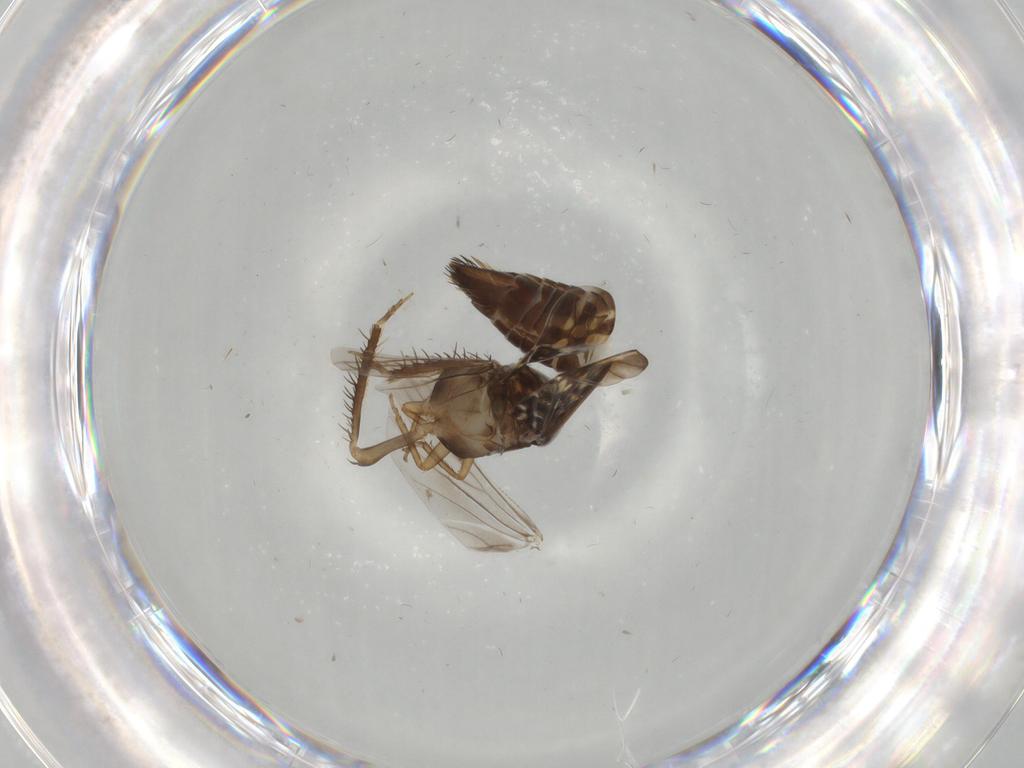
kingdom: Animalia
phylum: Arthropoda
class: Insecta
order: Hemiptera
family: Cicadellidae
